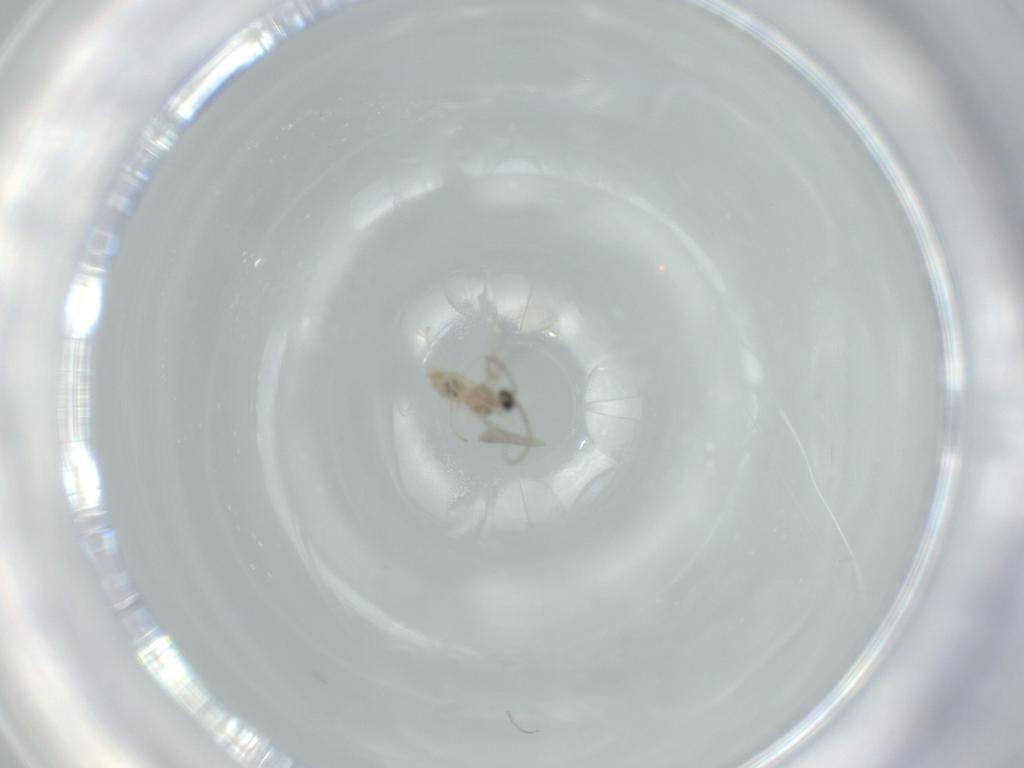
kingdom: Animalia
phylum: Arthropoda
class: Insecta
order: Diptera
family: Cecidomyiidae
